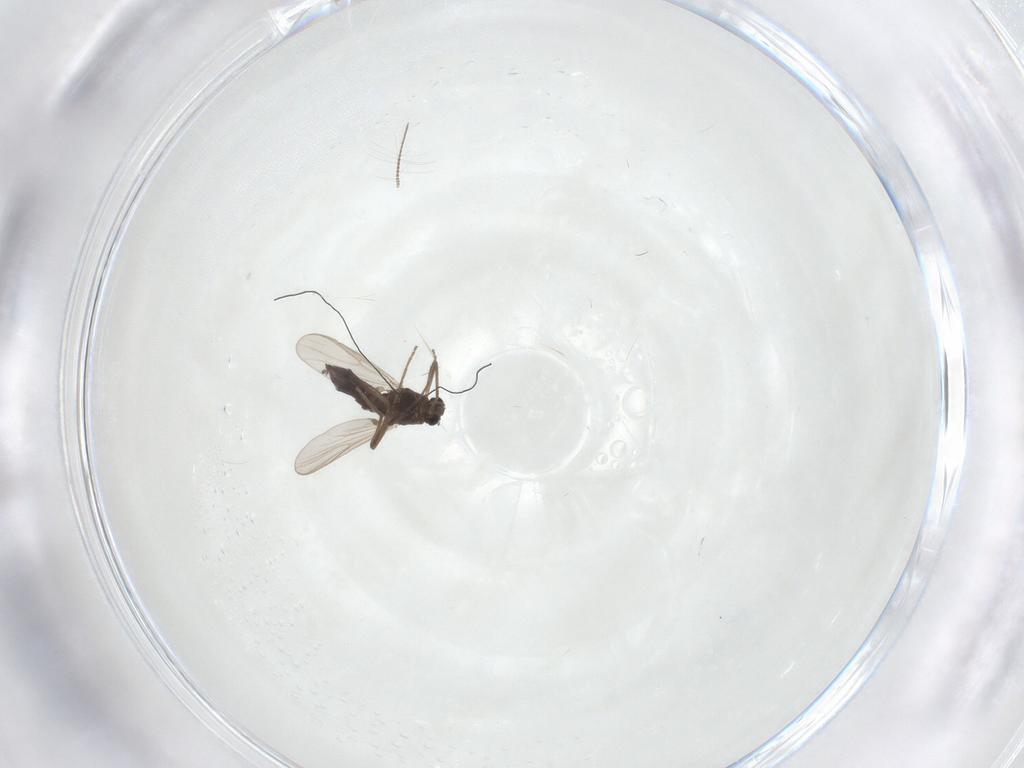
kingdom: Animalia
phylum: Arthropoda
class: Insecta
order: Diptera
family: Chironomidae
